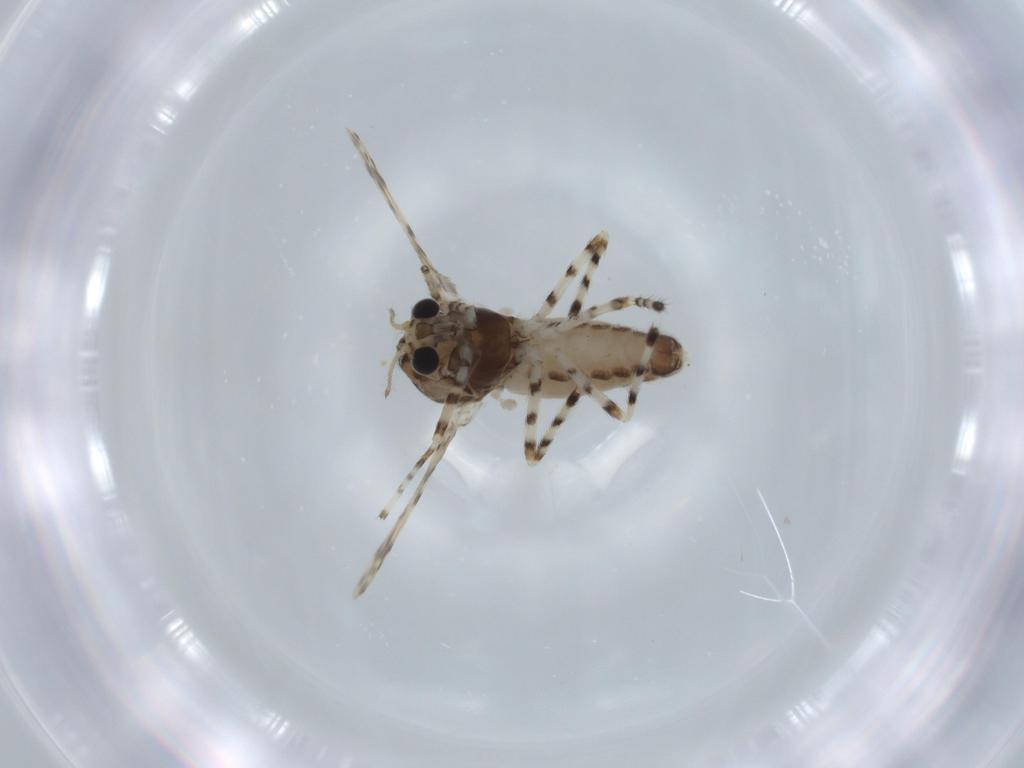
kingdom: Animalia
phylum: Arthropoda
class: Insecta
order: Diptera
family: Chironomidae
